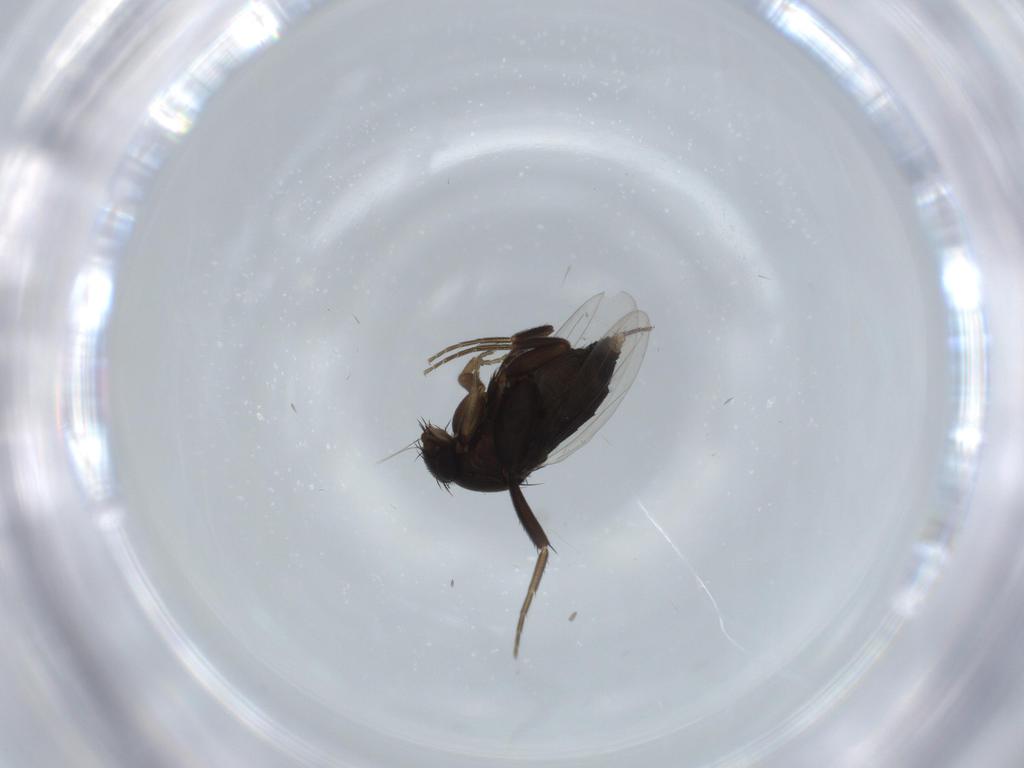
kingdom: Animalia
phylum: Arthropoda
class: Insecta
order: Diptera
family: Phoridae
